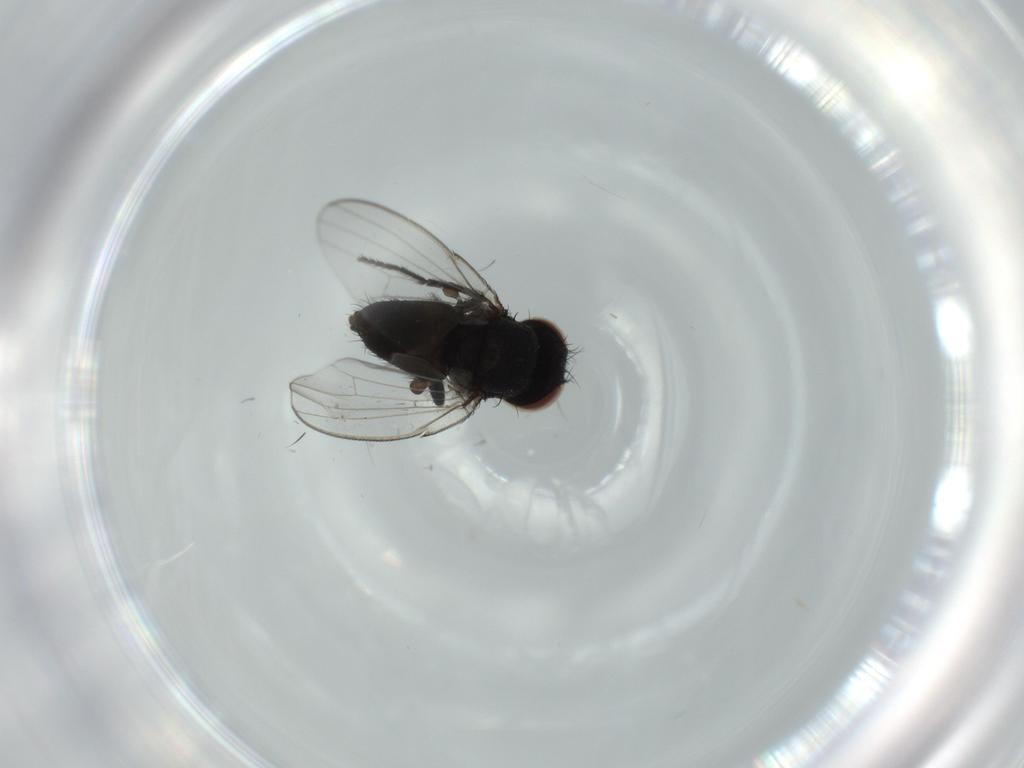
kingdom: Animalia
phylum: Arthropoda
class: Insecta
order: Diptera
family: Milichiidae
